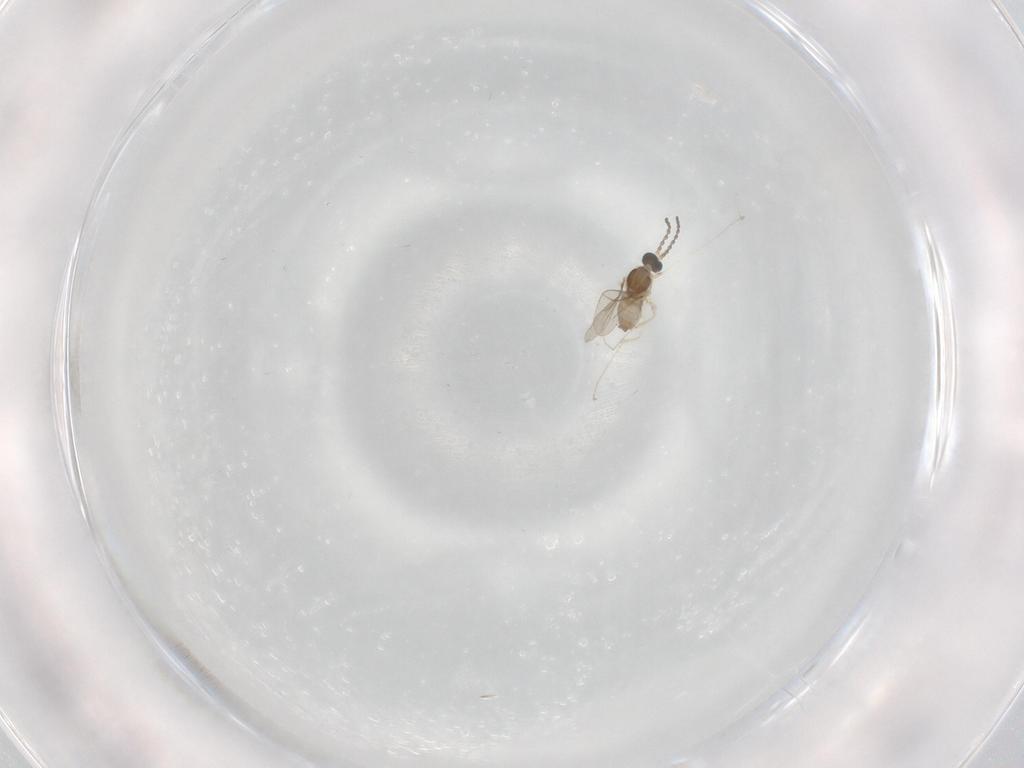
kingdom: Animalia
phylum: Arthropoda
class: Insecta
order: Diptera
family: Cecidomyiidae
